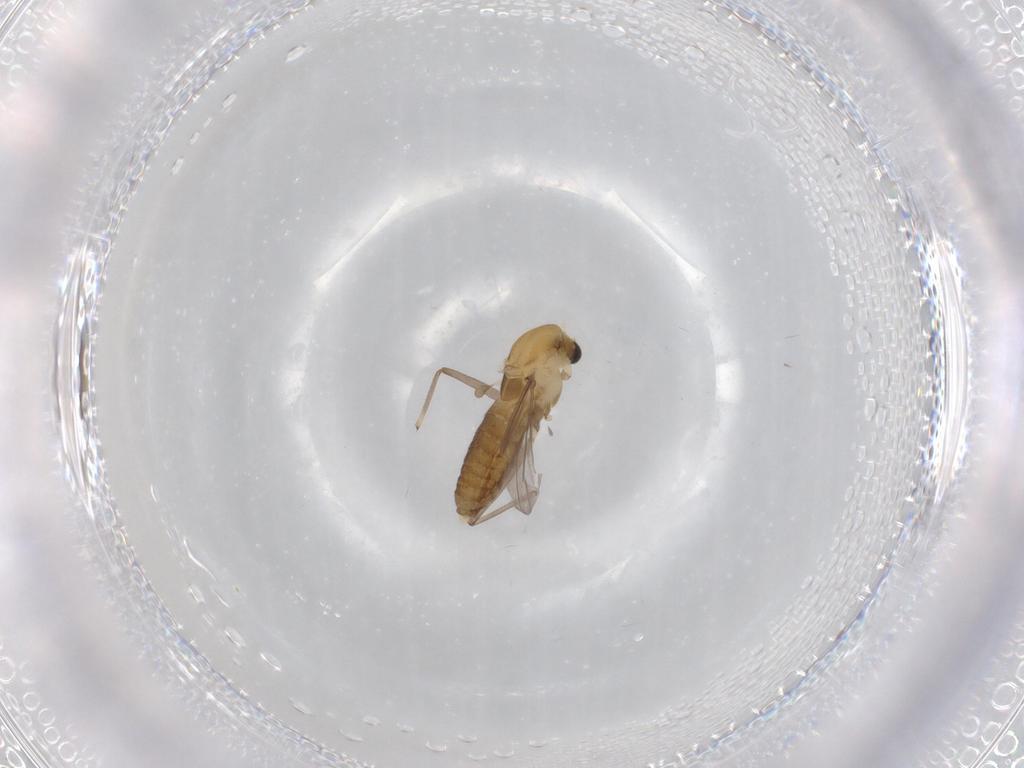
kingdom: Animalia
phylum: Arthropoda
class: Insecta
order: Diptera
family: Chironomidae
